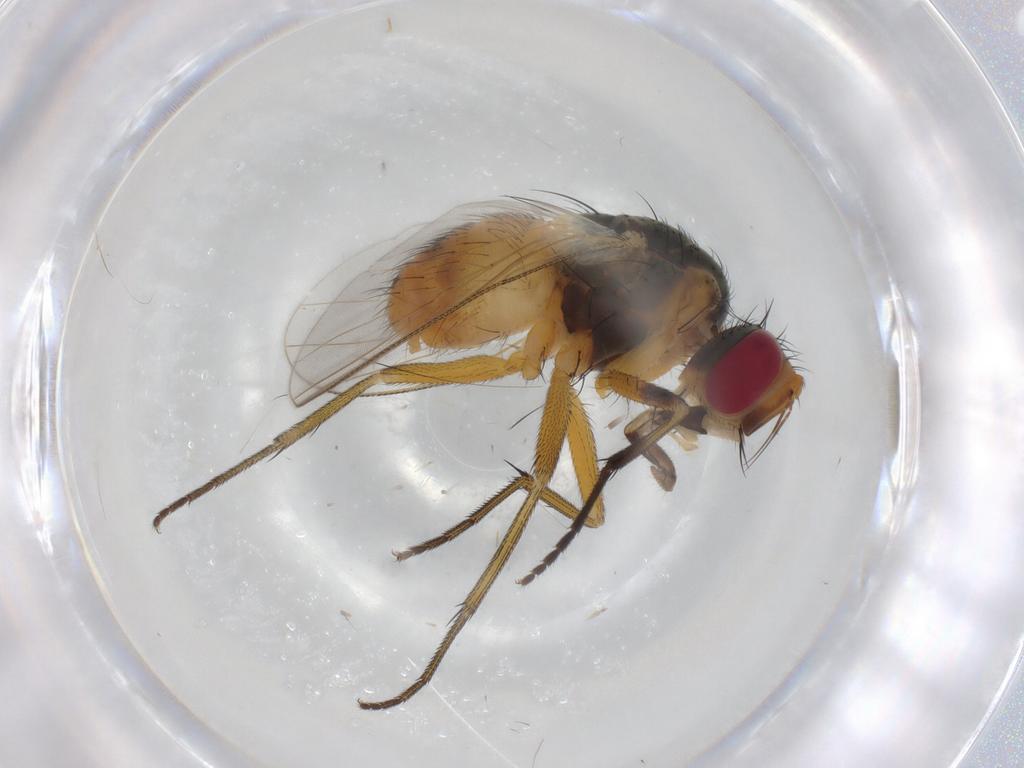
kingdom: Animalia
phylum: Arthropoda
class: Insecta
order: Diptera
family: Muscidae
